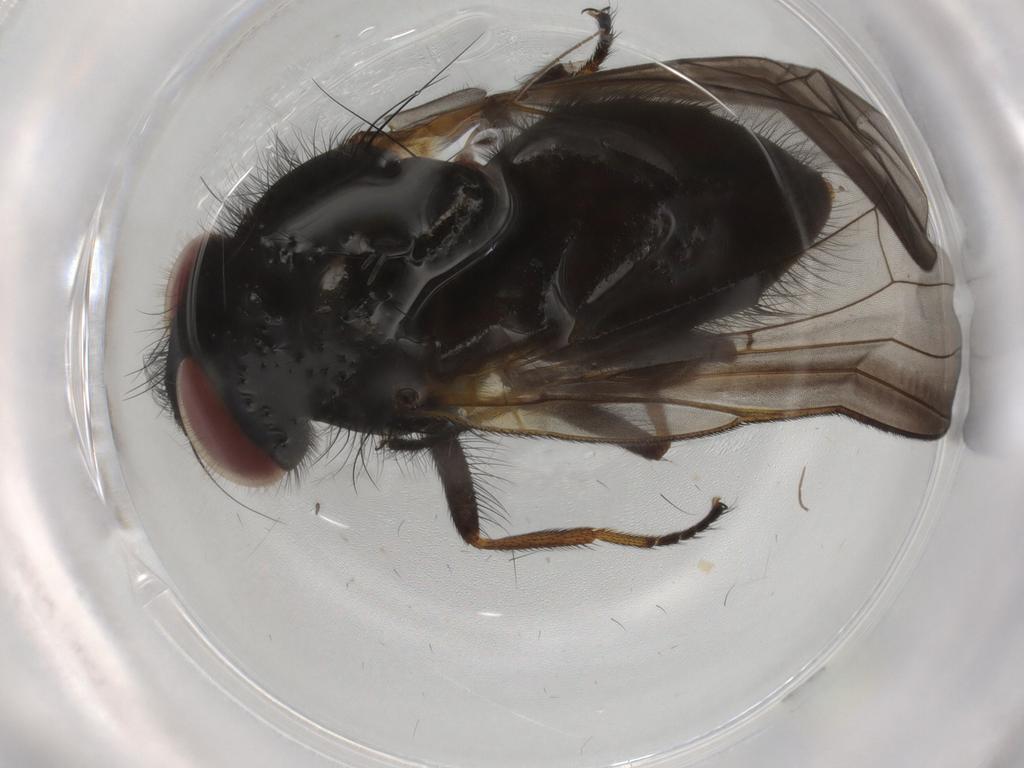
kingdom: Animalia
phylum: Arthropoda
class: Insecta
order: Diptera
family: Lonchaeidae
